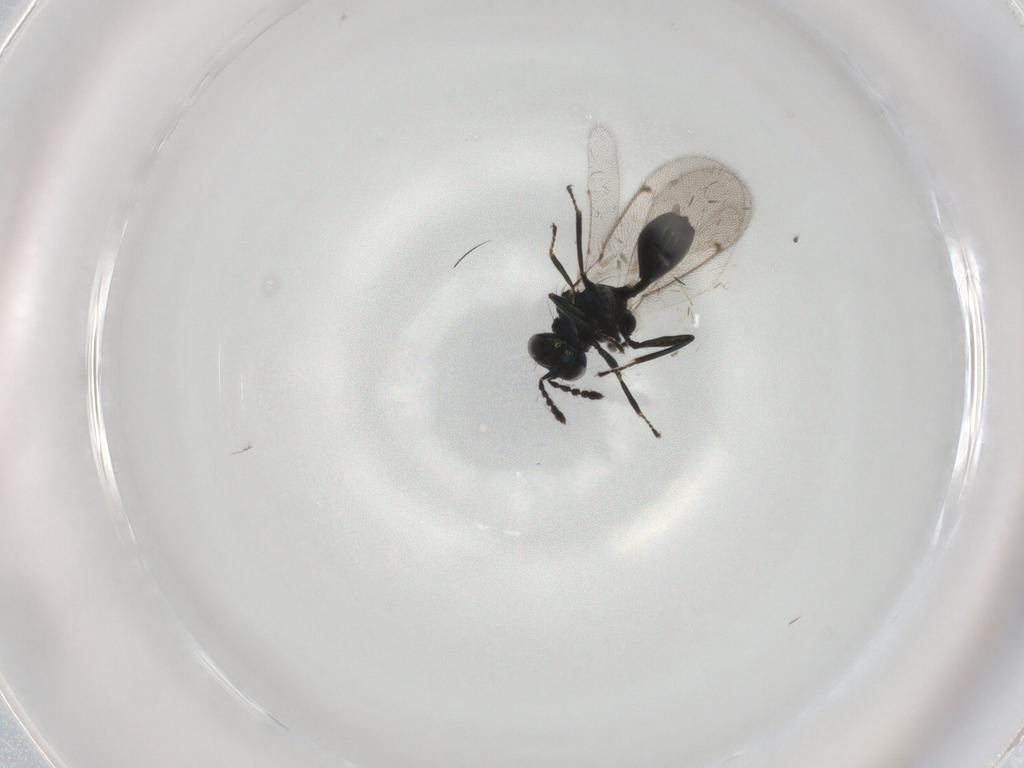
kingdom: Animalia
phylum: Arthropoda
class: Insecta
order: Hymenoptera
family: Eulophidae
